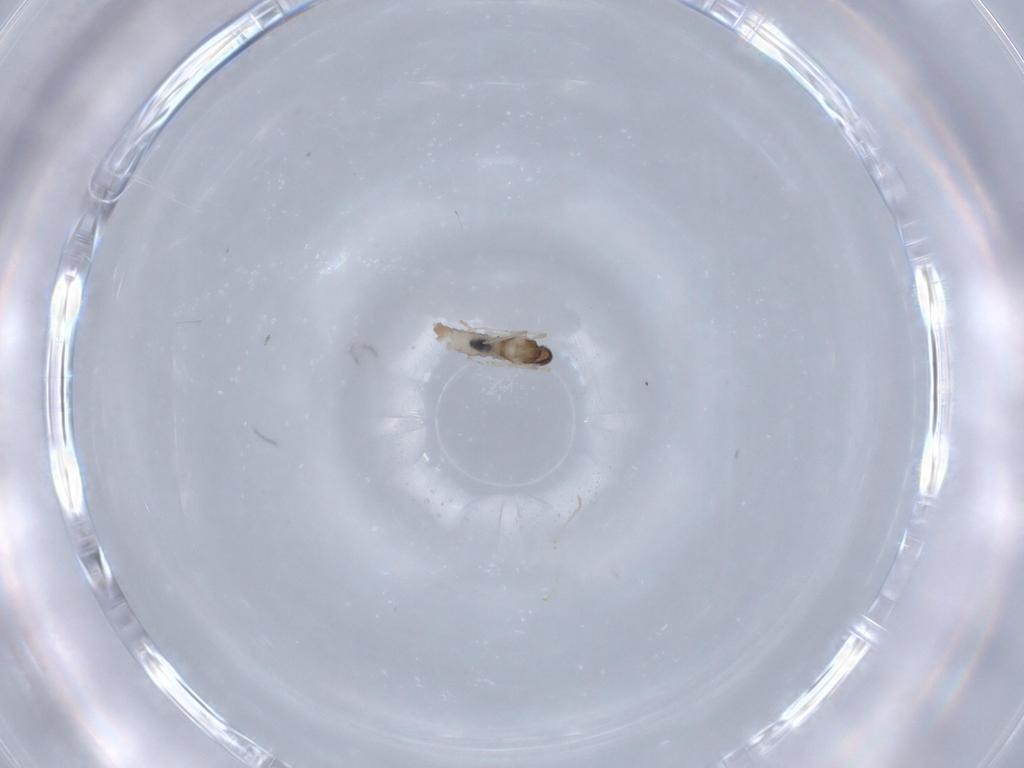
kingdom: Animalia
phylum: Arthropoda
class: Insecta
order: Diptera
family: Cecidomyiidae
